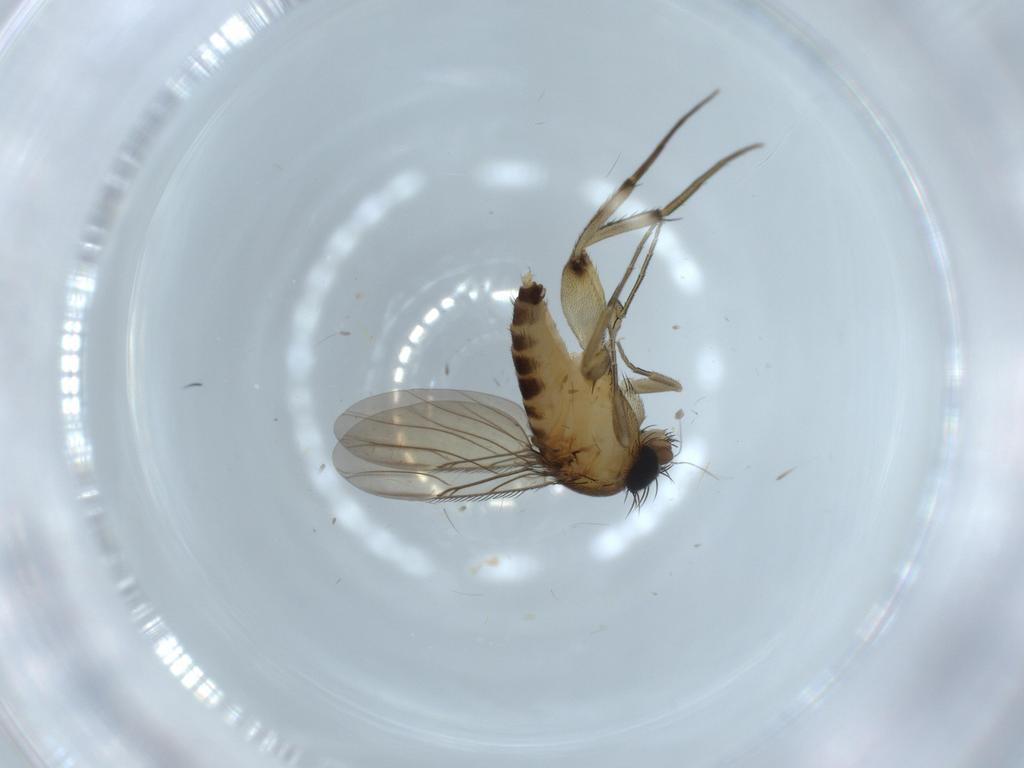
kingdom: Animalia
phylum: Arthropoda
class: Insecta
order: Diptera
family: Phoridae
